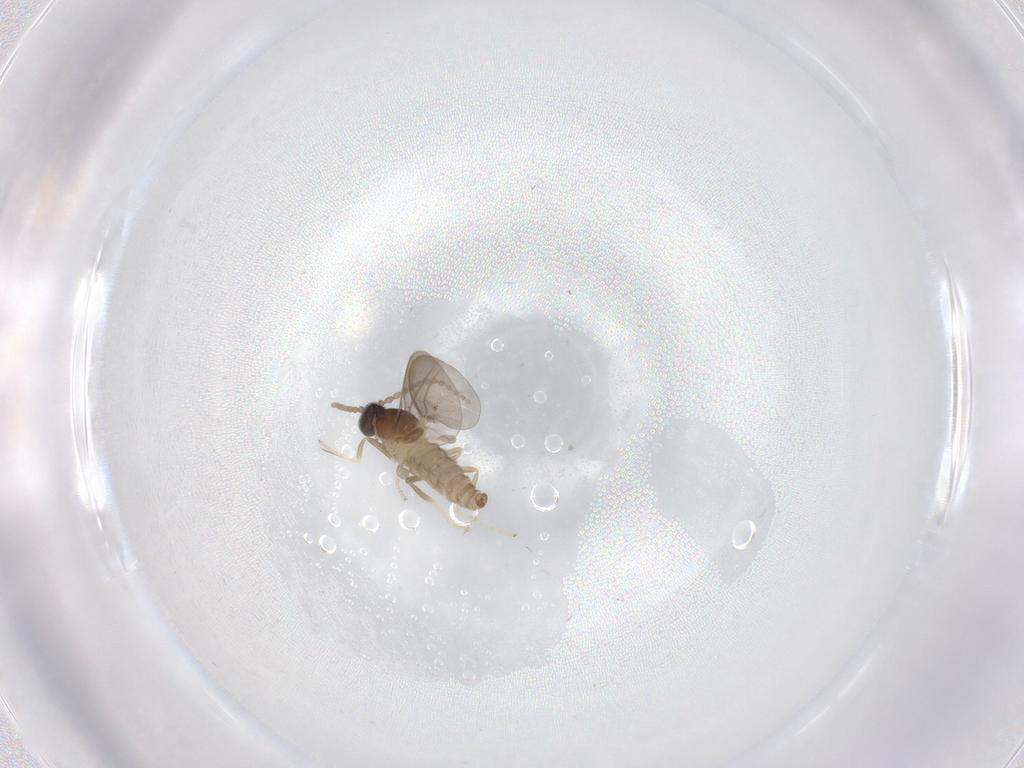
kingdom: Animalia
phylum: Arthropoda
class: Insecta
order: Diptera
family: Cecidomyiidae
